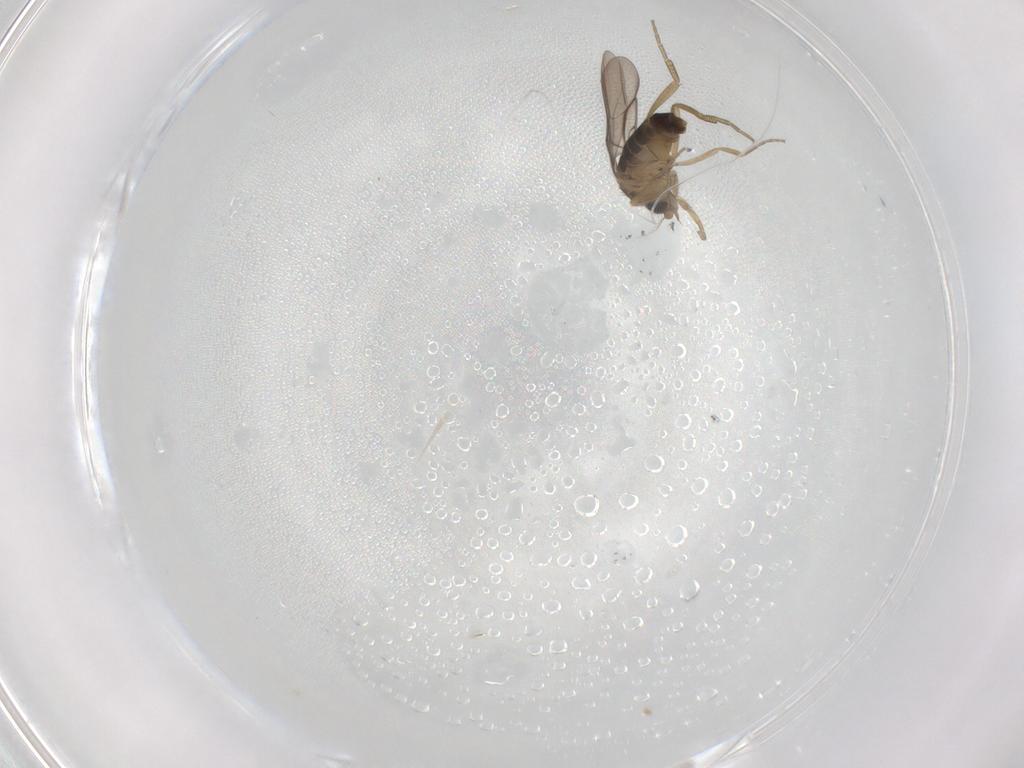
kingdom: Animalia
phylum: Arthropoda
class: Insecta
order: Diptera
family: Phoridae
